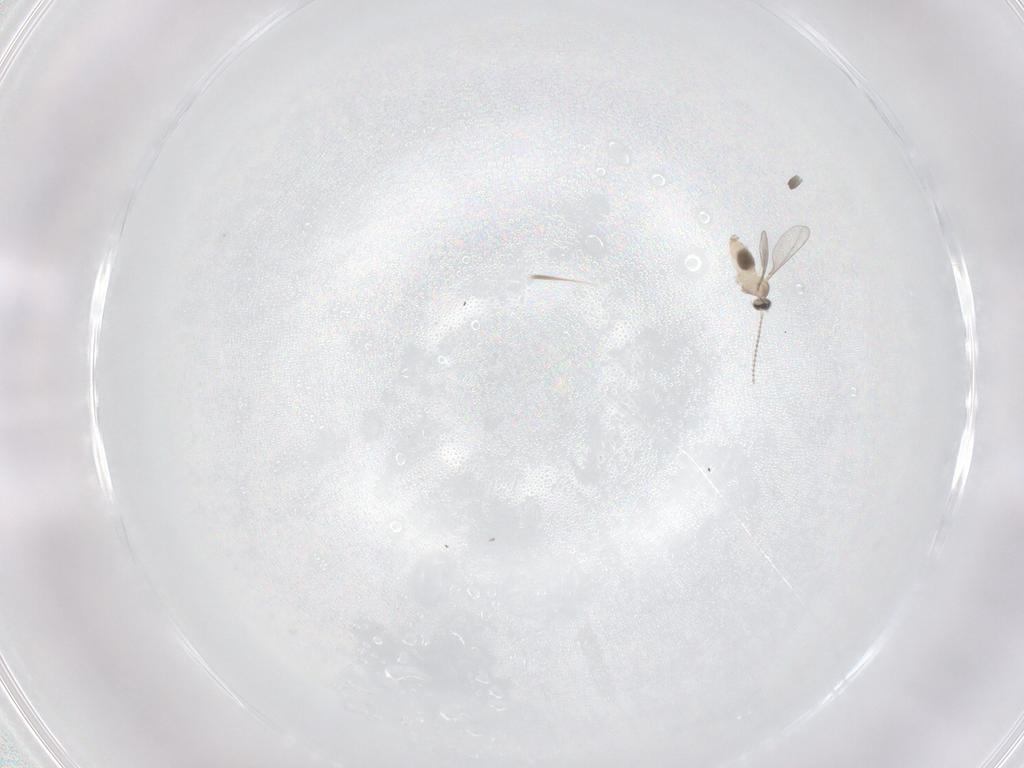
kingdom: Animalia
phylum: Arthropoda
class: Insecta
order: Diptera
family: Cecidomyiidae
